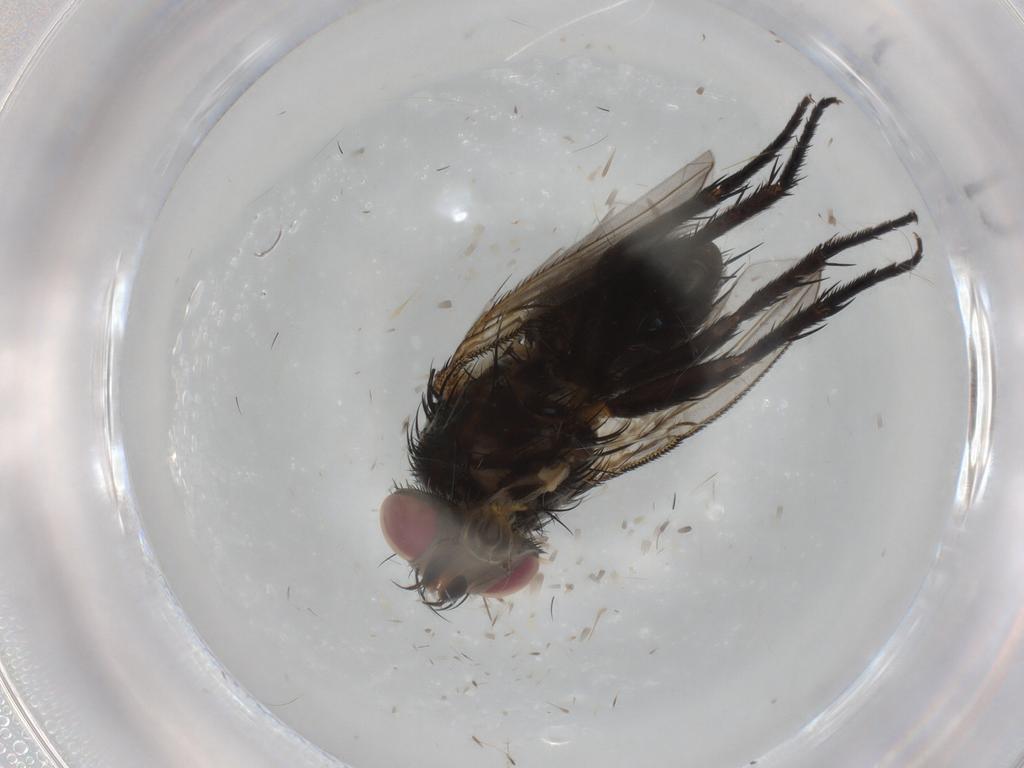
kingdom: Animalia
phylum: Arthropoda
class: Insecta
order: Diptera
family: Tachinidae
